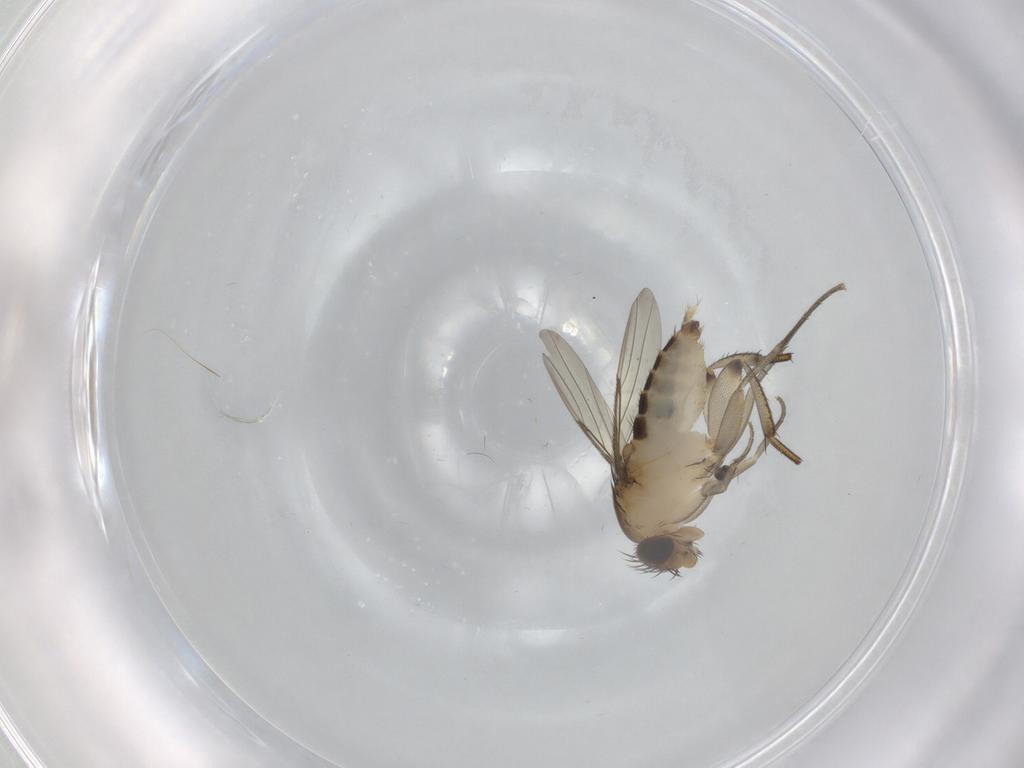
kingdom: Animalia
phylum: Arthropoda
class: Insecta
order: Diptera
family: Phoridae
